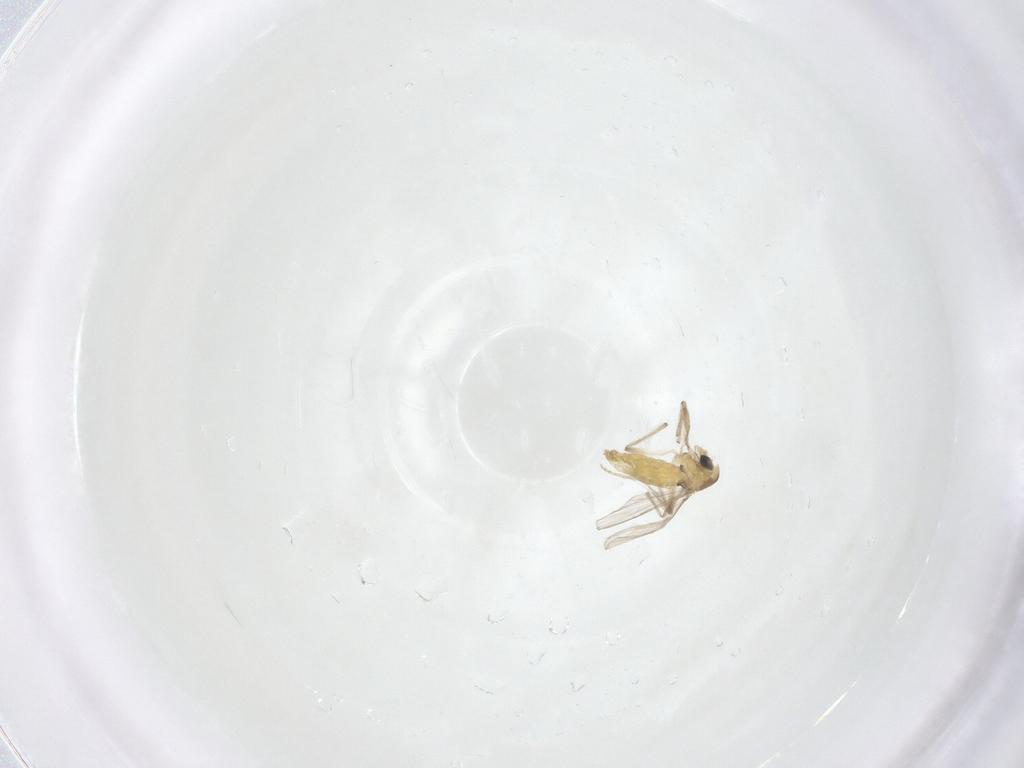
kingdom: Animalia
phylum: Arthropoda
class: Insecta
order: Diptera
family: Chironomidae
